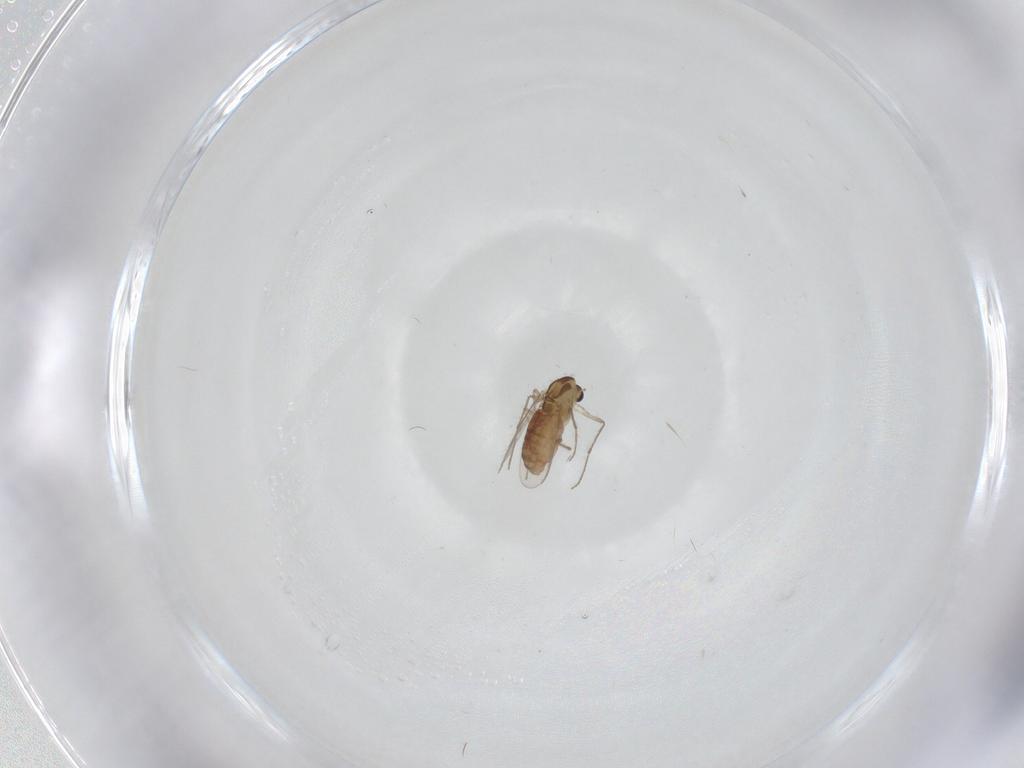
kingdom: Animalia
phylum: Arthropoda
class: Insecta
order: Diptera
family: Chironomidae
